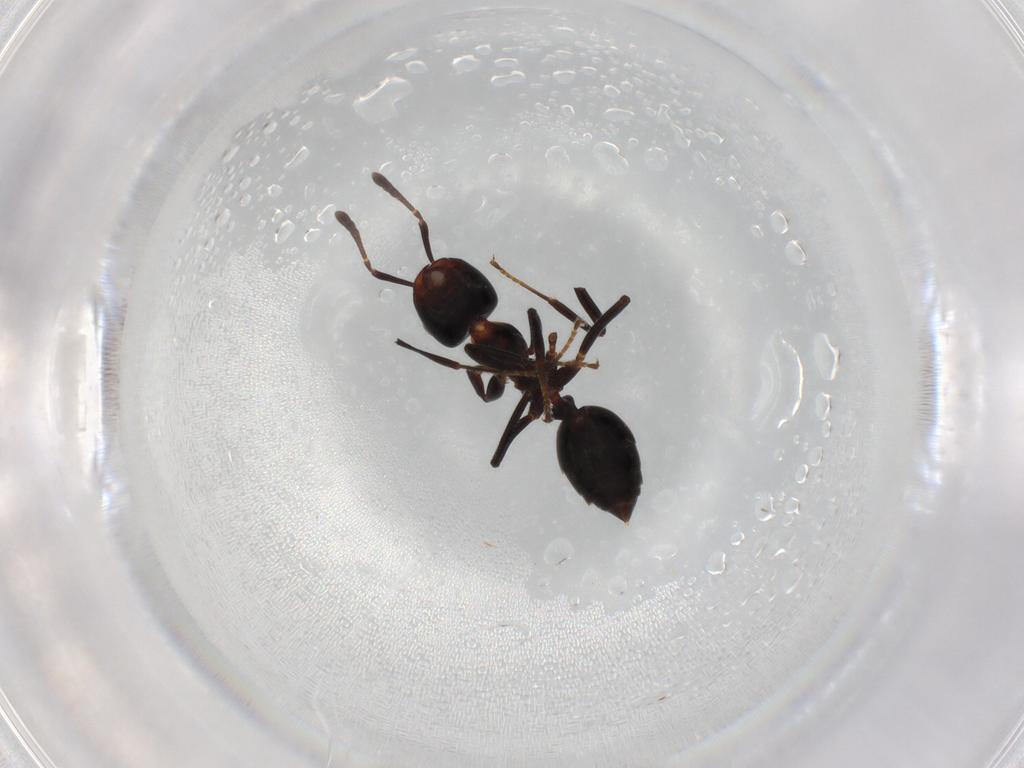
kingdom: Animalia
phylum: Arthropoda
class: Insecta
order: Hymenoptera
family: Formicidae
